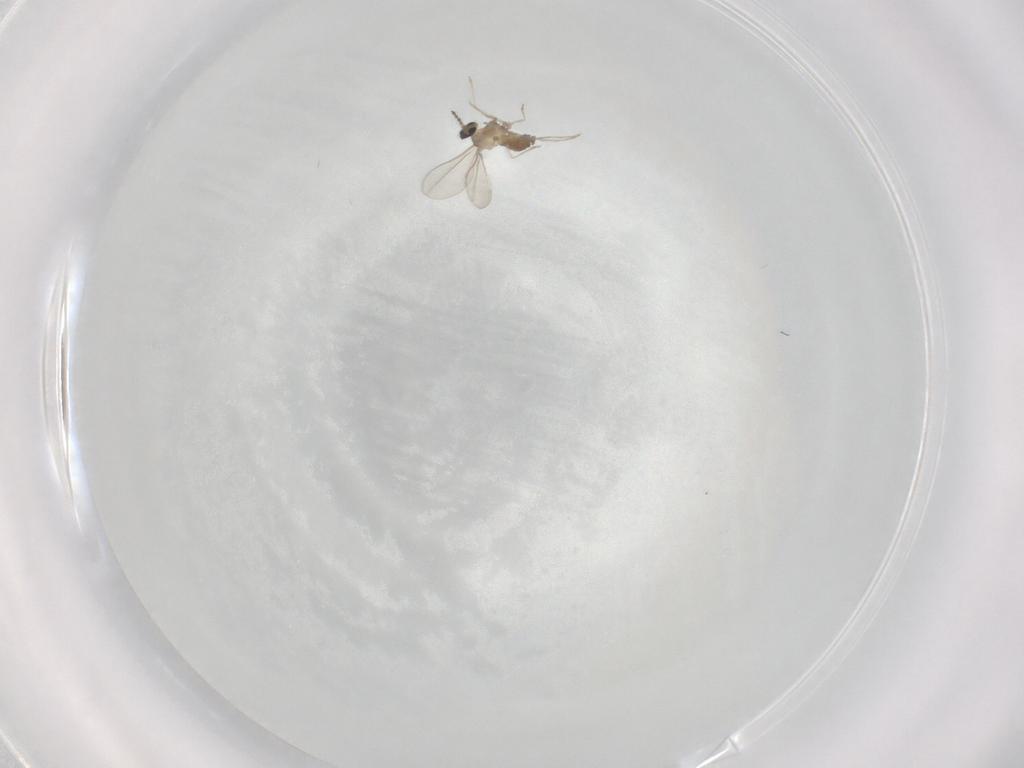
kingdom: Animalia
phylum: Arthropoda
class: Insecta
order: Diptera
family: Cecidomyiidae
